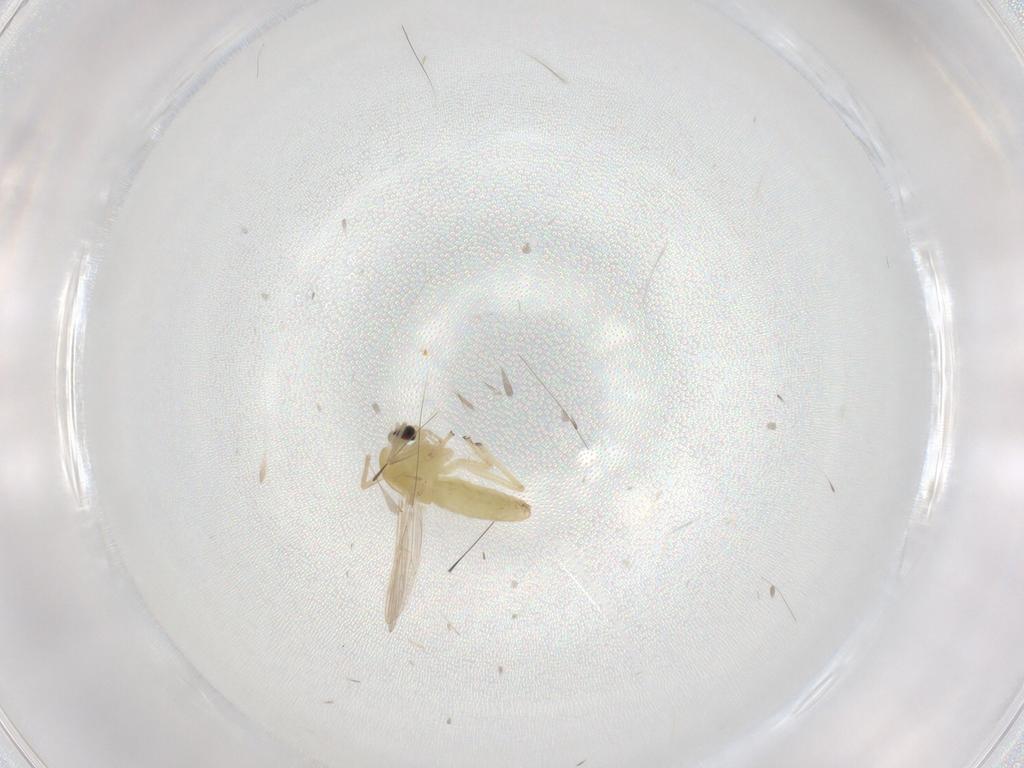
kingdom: Animalia
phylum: Arthropoda
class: Insecta
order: Diptera
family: Chironomidae
